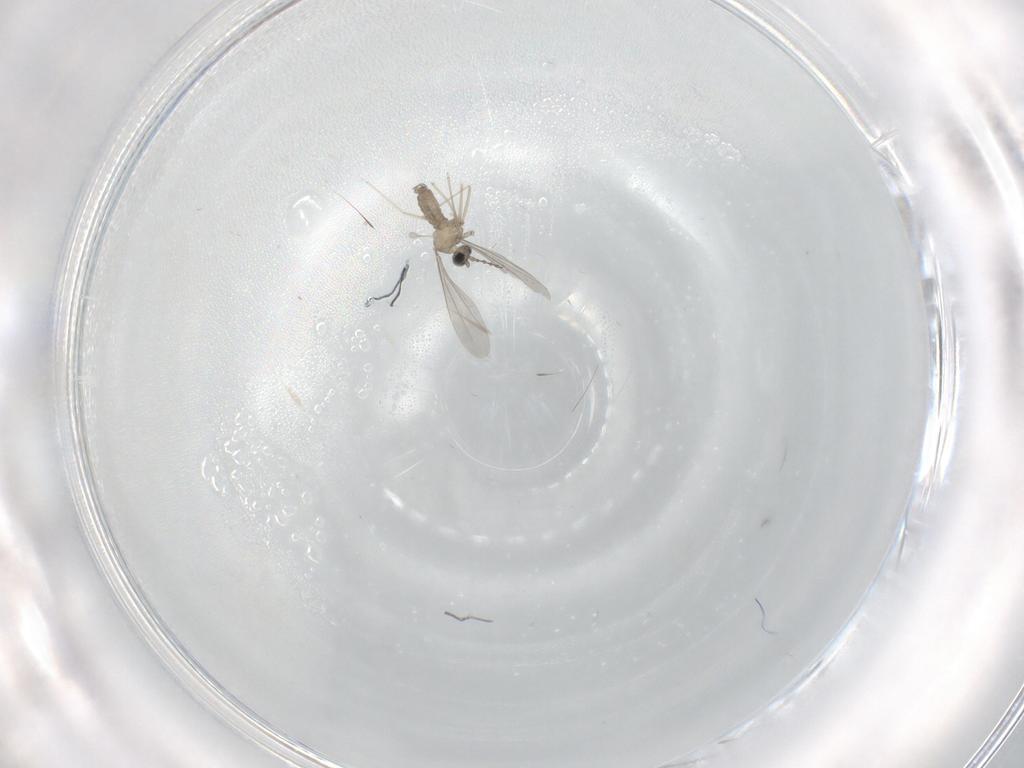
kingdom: Animalia
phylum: Arthropoda
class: Insecta
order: Diptera
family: Cecidomyiidae
